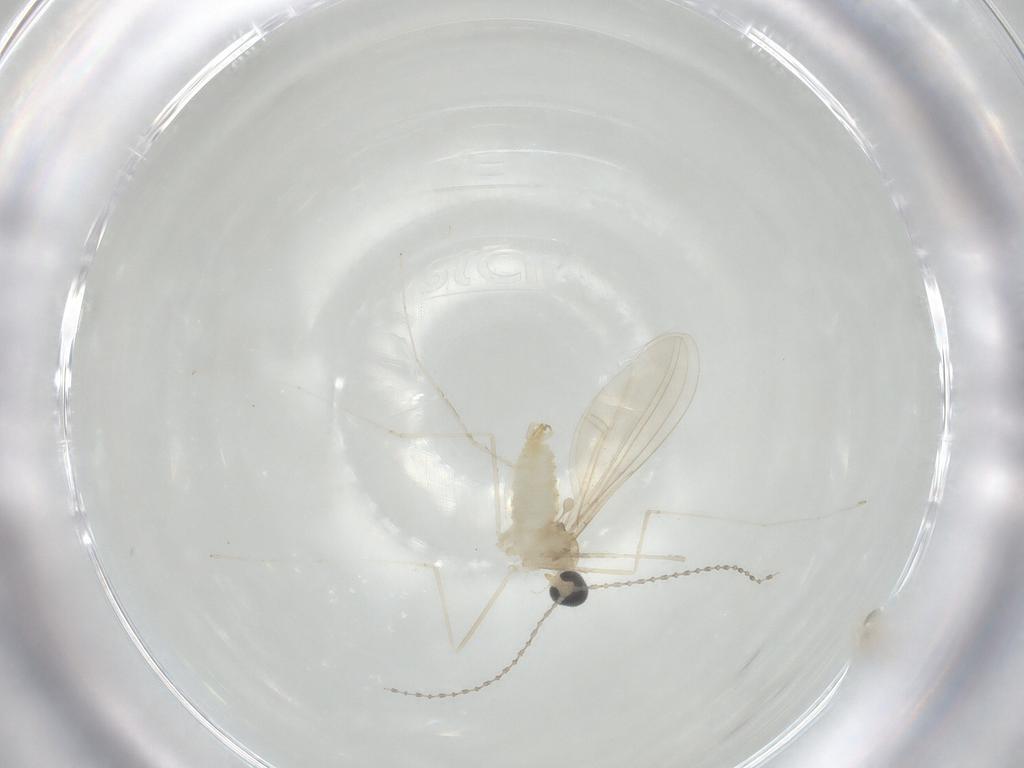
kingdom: Animalia
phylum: Arthropoda
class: Insecta
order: Diptera
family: Cecidomyiidae
